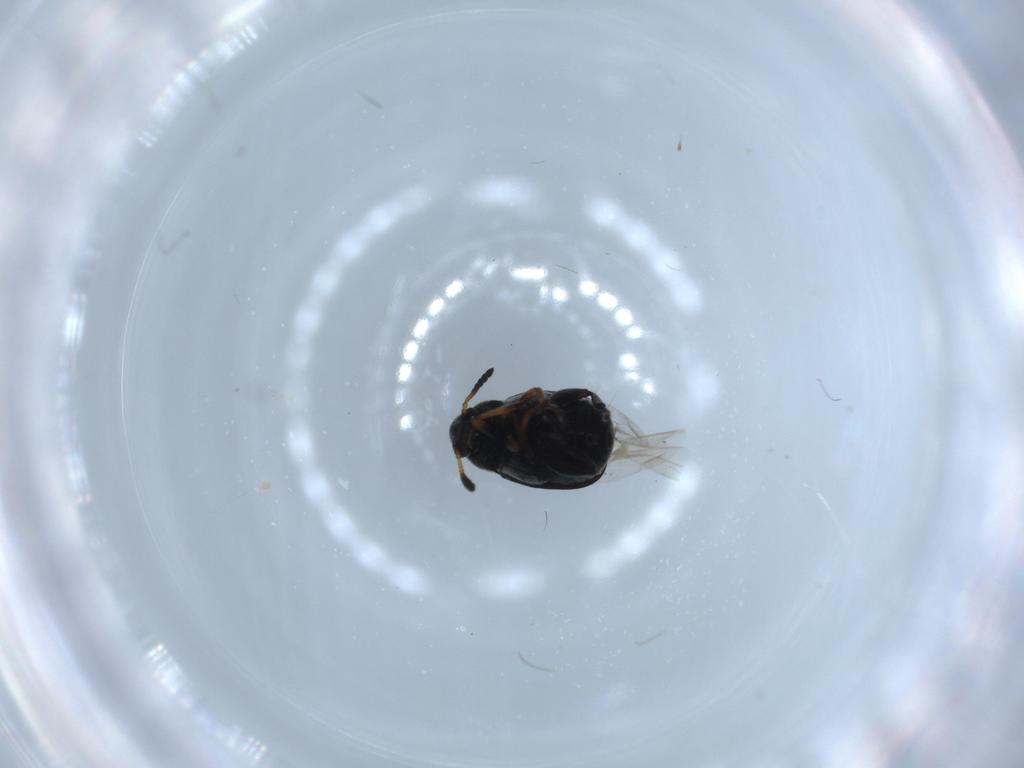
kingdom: Animalia
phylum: Arthropoda
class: Insecta
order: Coleoptera
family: Chrysomelidae
